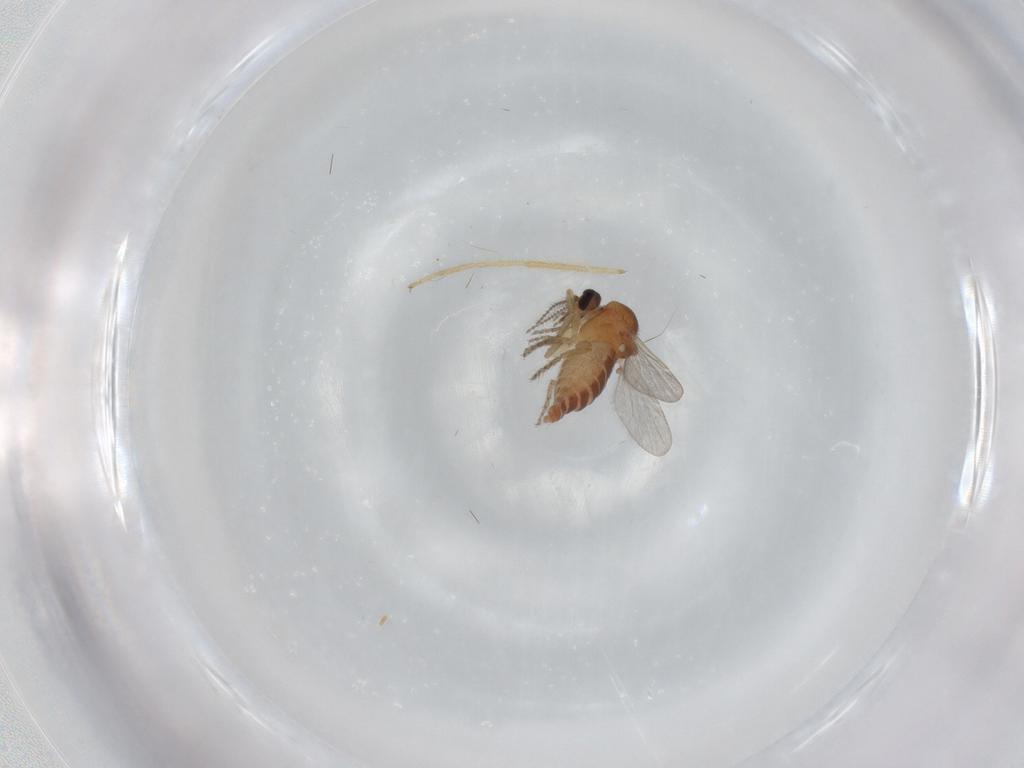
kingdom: Animalia
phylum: Arthropoda
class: Insecta
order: Diptera
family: Ceratopogonidae
